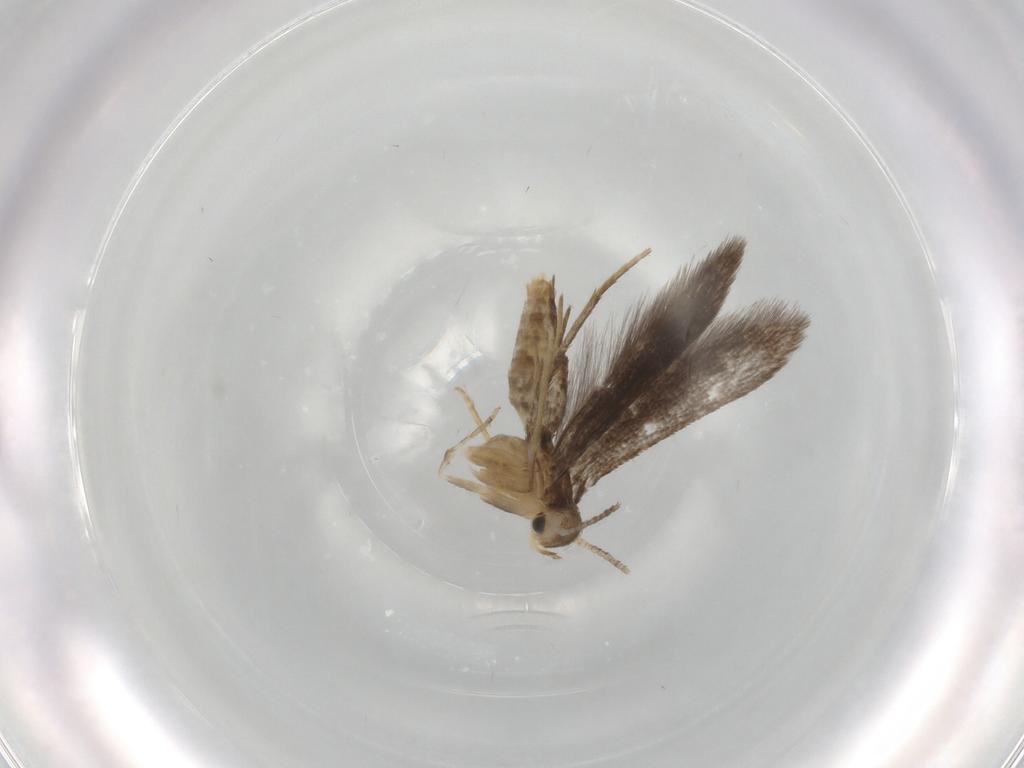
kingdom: Animalia
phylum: Arthropoda
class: Insecta
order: Lepidoptera
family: Schreckensteiniidae
